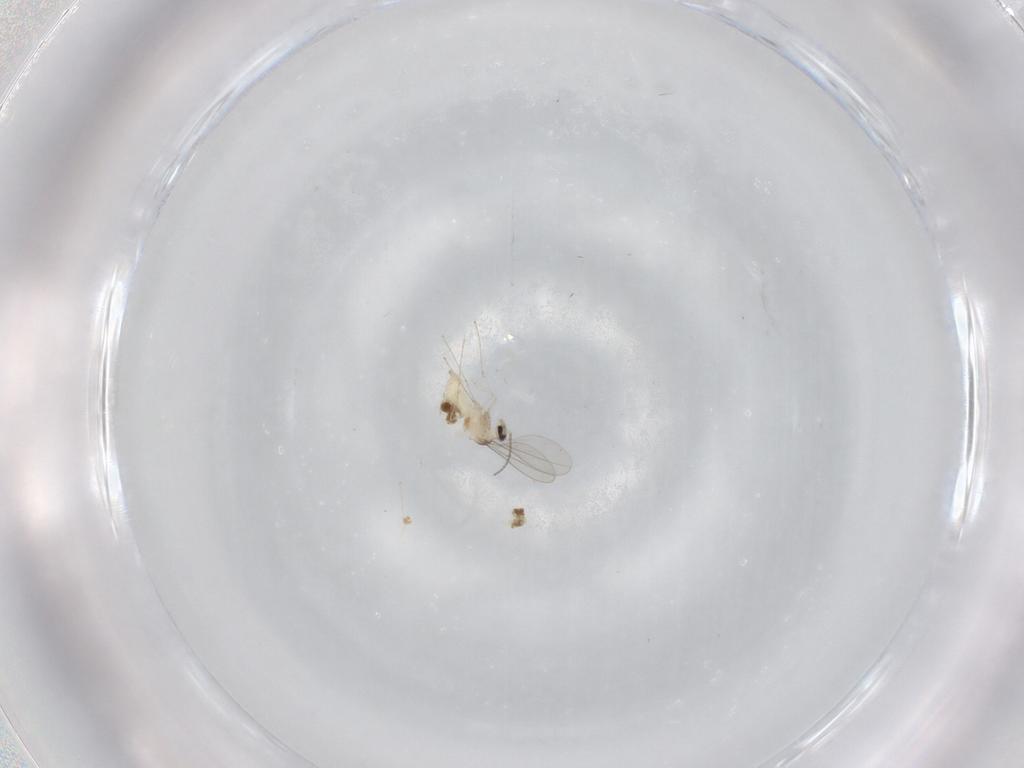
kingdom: Animalia
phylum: Arthropoda
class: Insecta
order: Diptera
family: Cecidomyiidae
